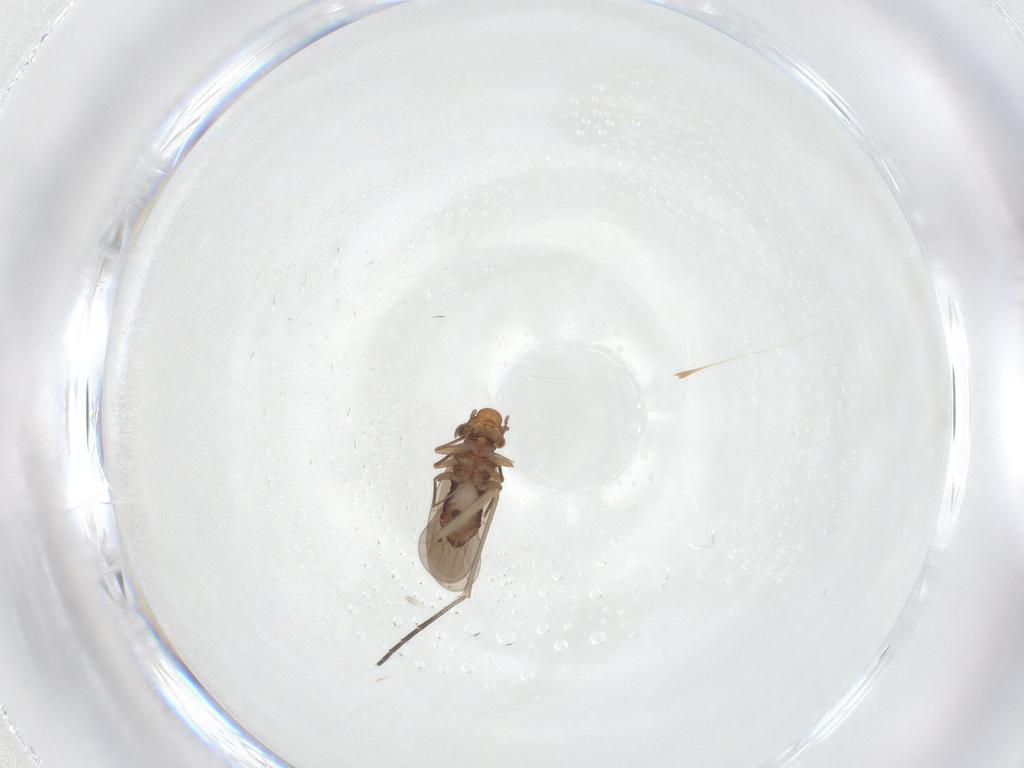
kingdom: Animalia
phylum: Arthropoda
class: Insecta
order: Diptera
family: Sciaridae
